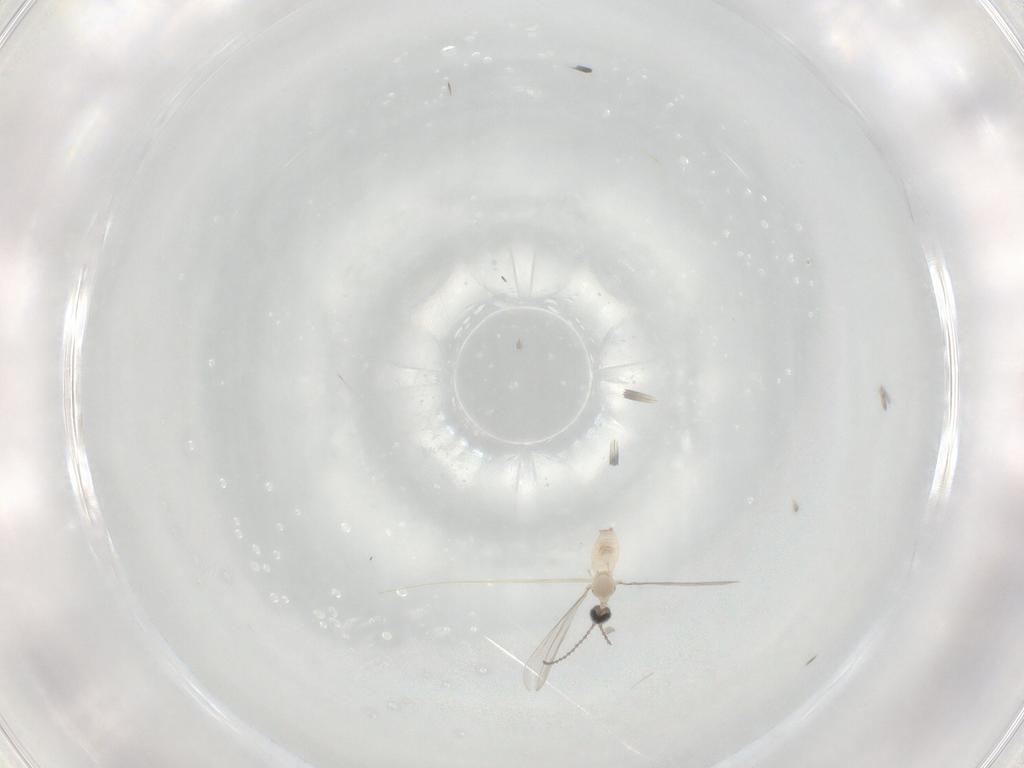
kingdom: Animalia
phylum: Arthropoda
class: Insecta
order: Diptera
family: Cecidomyiidae
